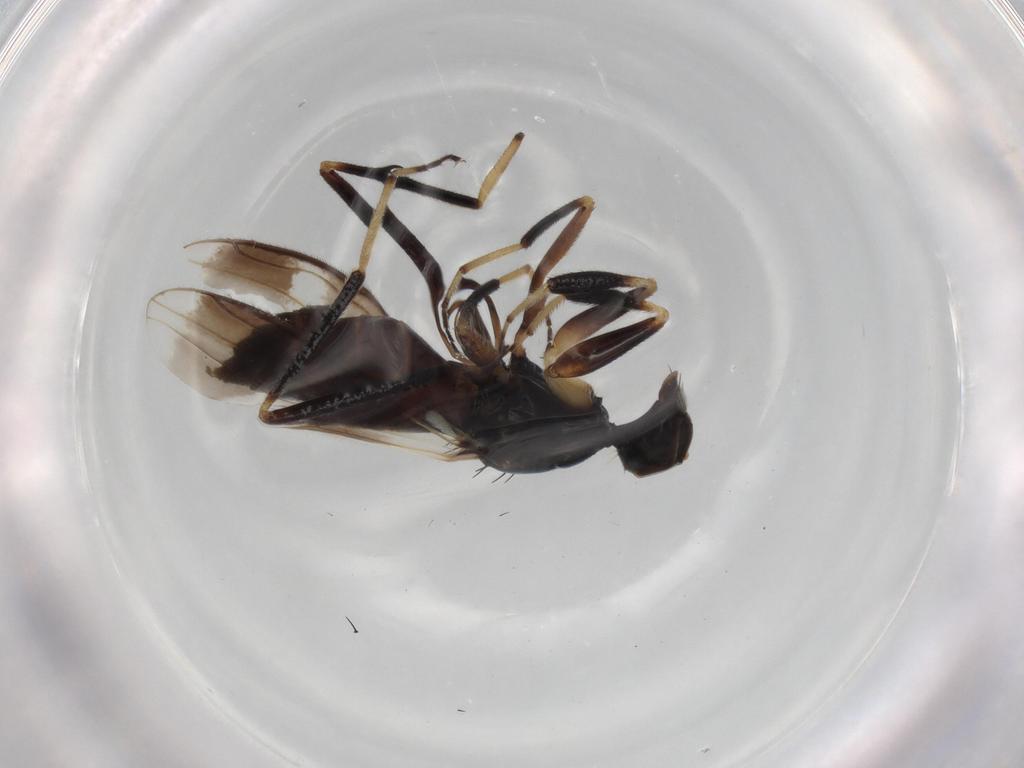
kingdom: Animalia
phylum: Arthropoda
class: Insecta
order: Diptera
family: Hybotidae
